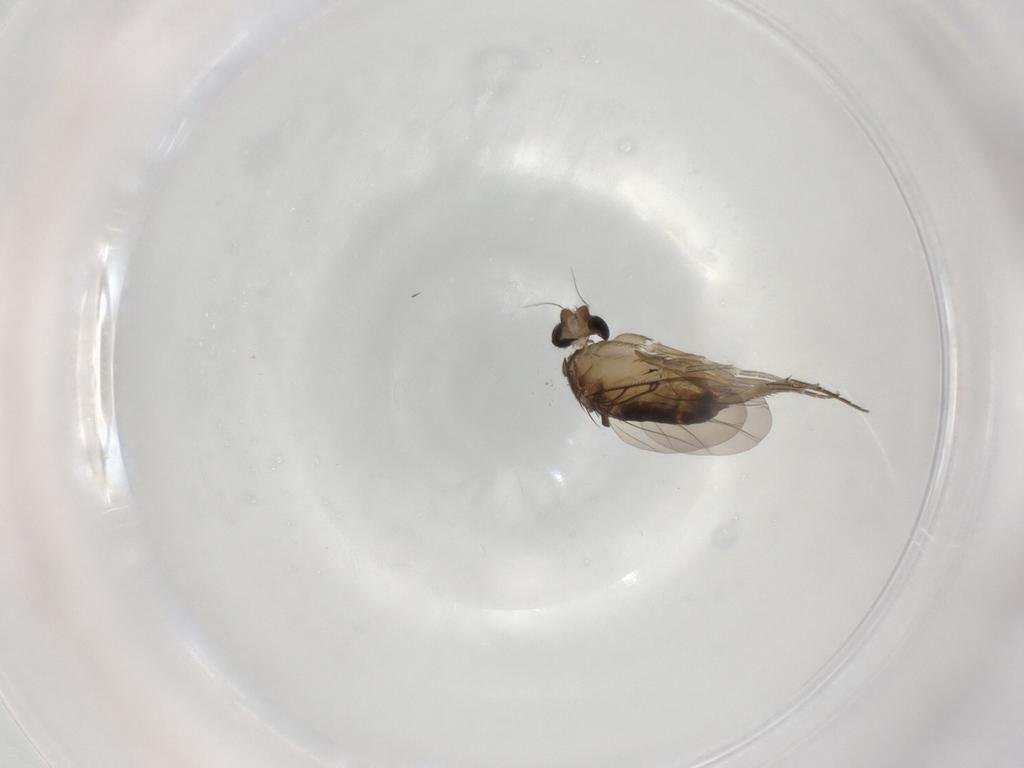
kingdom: Animalia
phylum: Arthropoda
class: Insecta
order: Diptera
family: Phoridae
